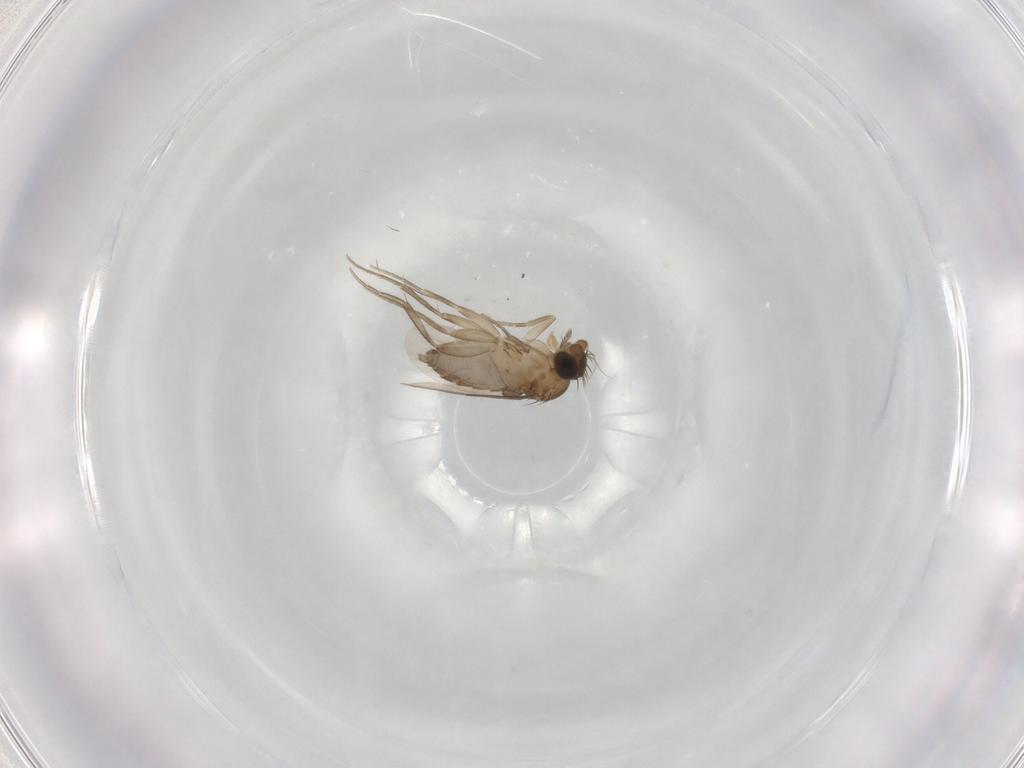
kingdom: Animalia
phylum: Arthropoda
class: Insecta
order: Diptera
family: Phoridae
